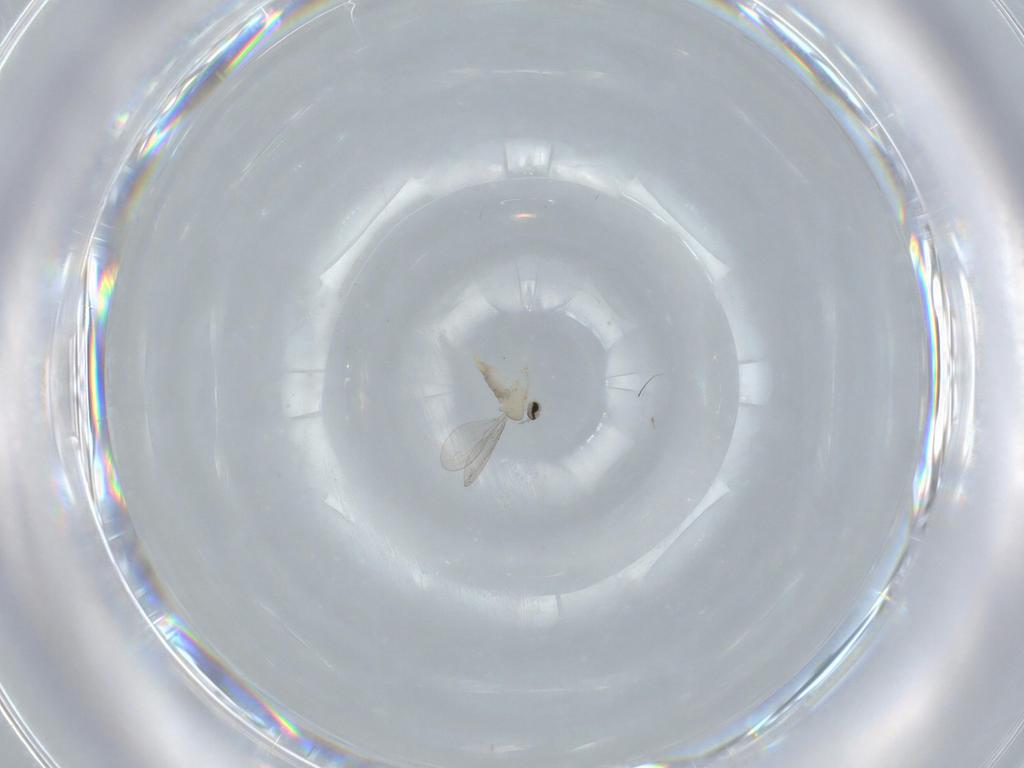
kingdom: Animalia
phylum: Arthropoda
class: Insecta
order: Diptera
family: Cecidomyiidae
